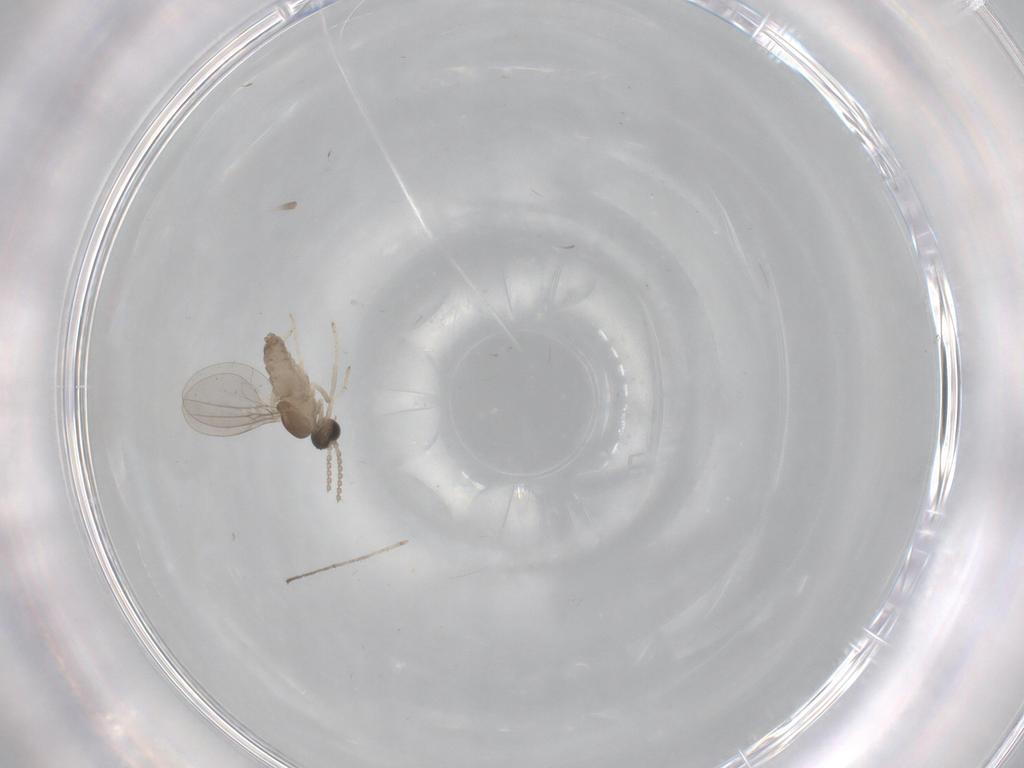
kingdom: Animalia
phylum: Arthropoda
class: Insecta
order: Diptera
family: Cecidomyiidae
